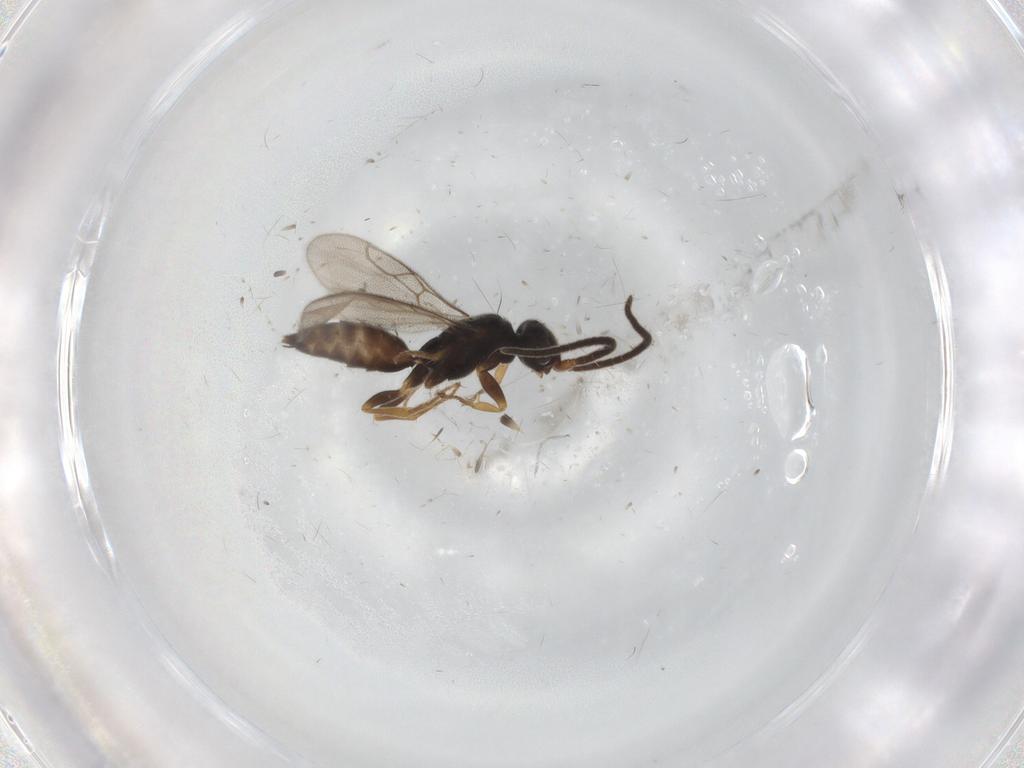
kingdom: Animalia
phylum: Arthropoda
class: Insecta
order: Hymenoptera
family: Sclerogibbidae
